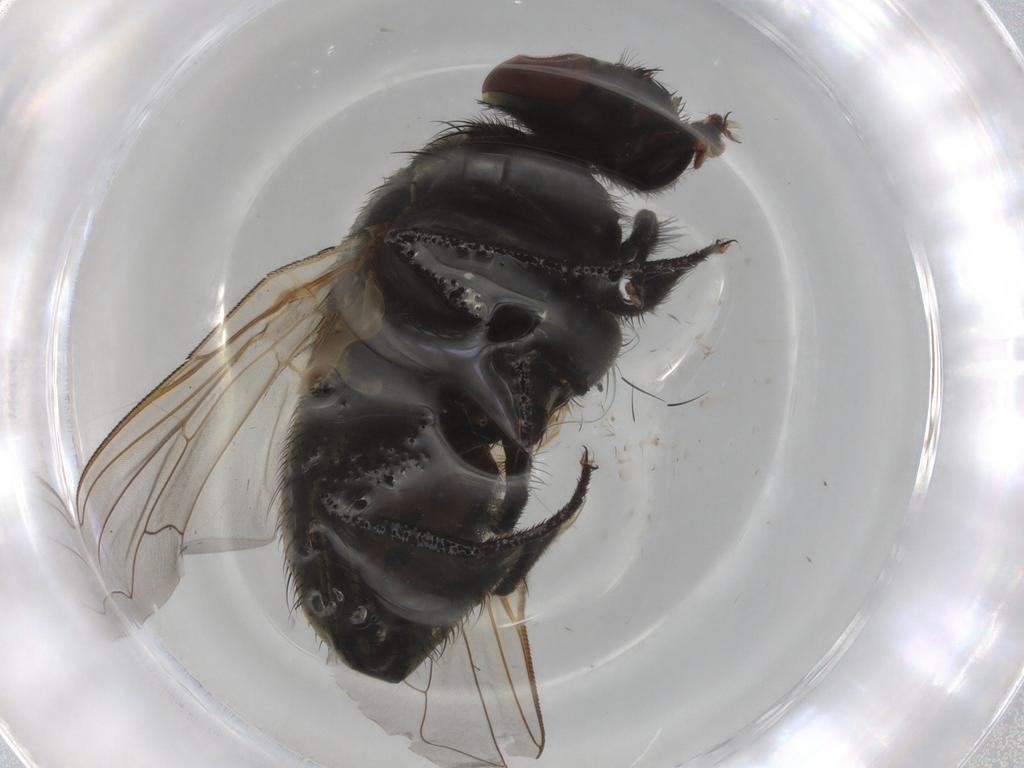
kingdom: Animalia
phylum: Arthropoda
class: Insecta
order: Diptera
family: Muscidae
